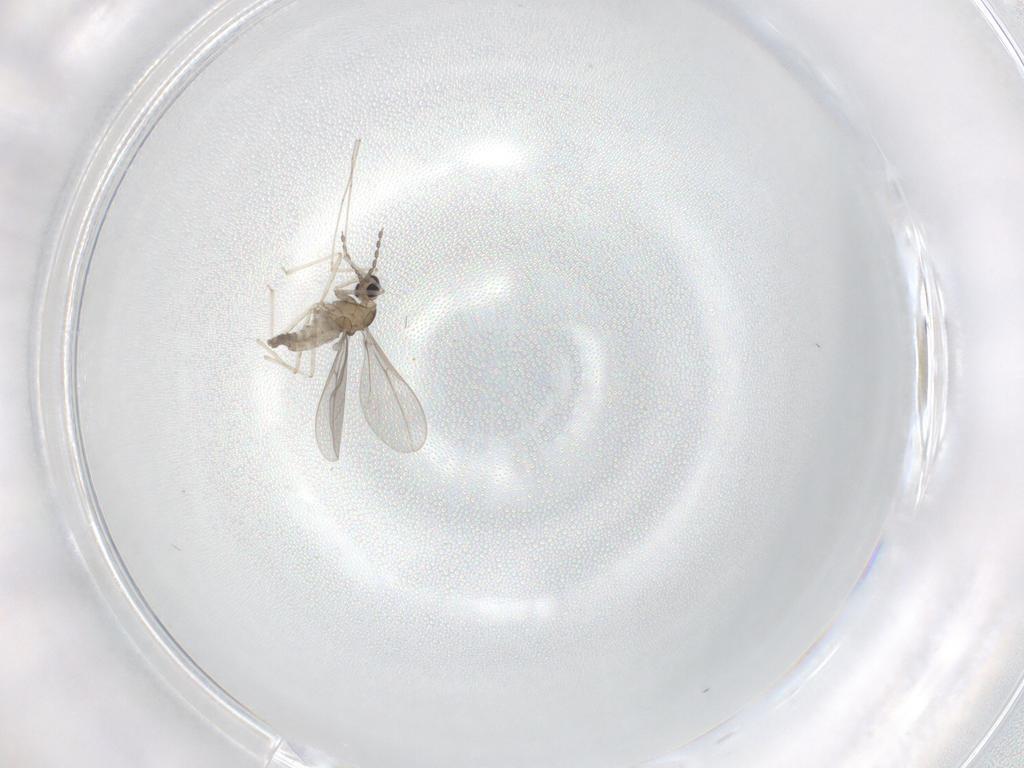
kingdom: Animalia
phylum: Arthropoda
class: Insecta
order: Diptera
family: Cecidomyiidae
